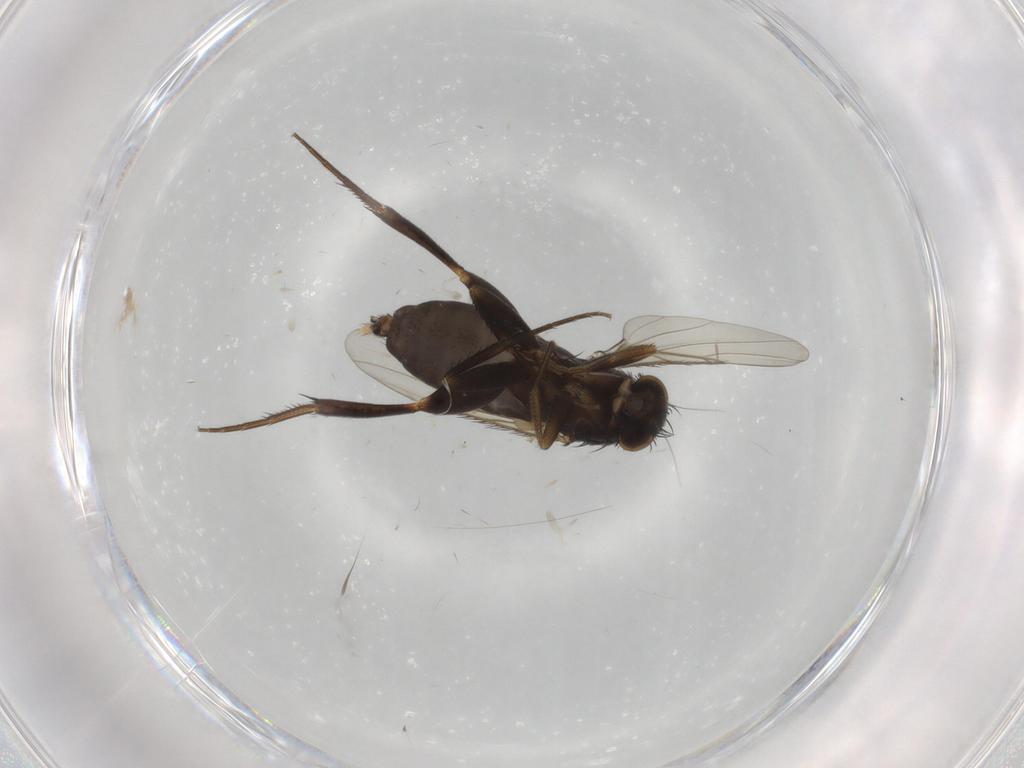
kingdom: Animalia
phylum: Arthropoda
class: Insecta
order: Diptera
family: Phoridae
